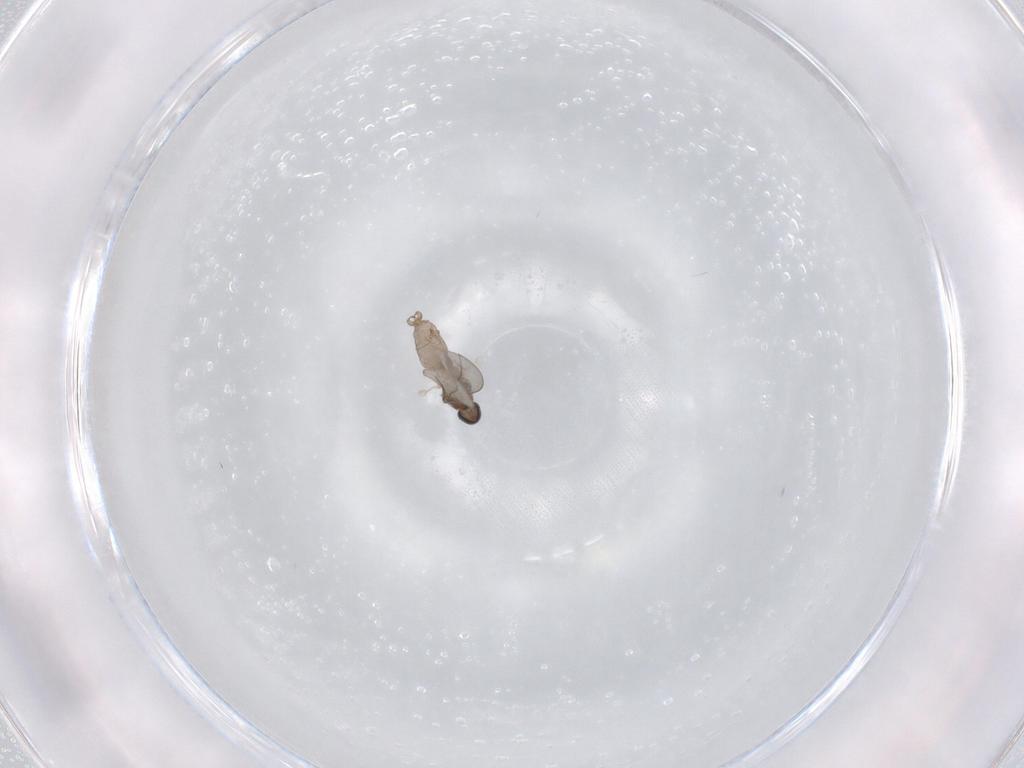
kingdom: Animalia
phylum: Arthropoda
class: Insecta
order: Diptera
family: Cecidomyiidae
